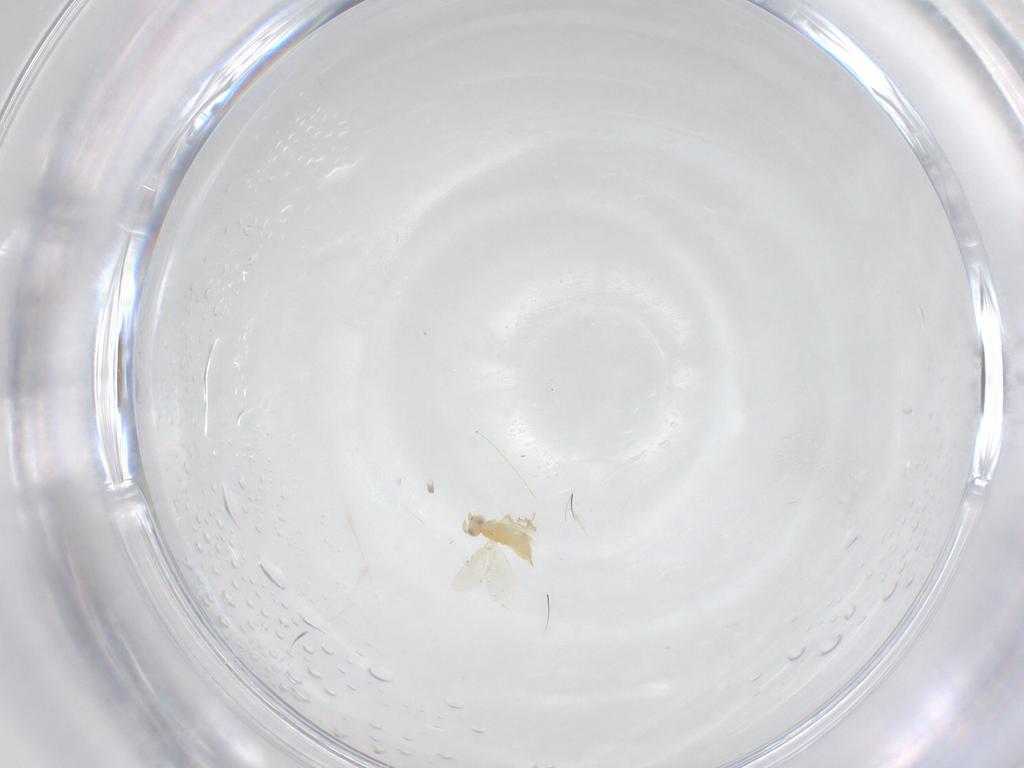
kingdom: Animalia
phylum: Arthropoda
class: Insecta
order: Hymenoptera
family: Aphelinidae
